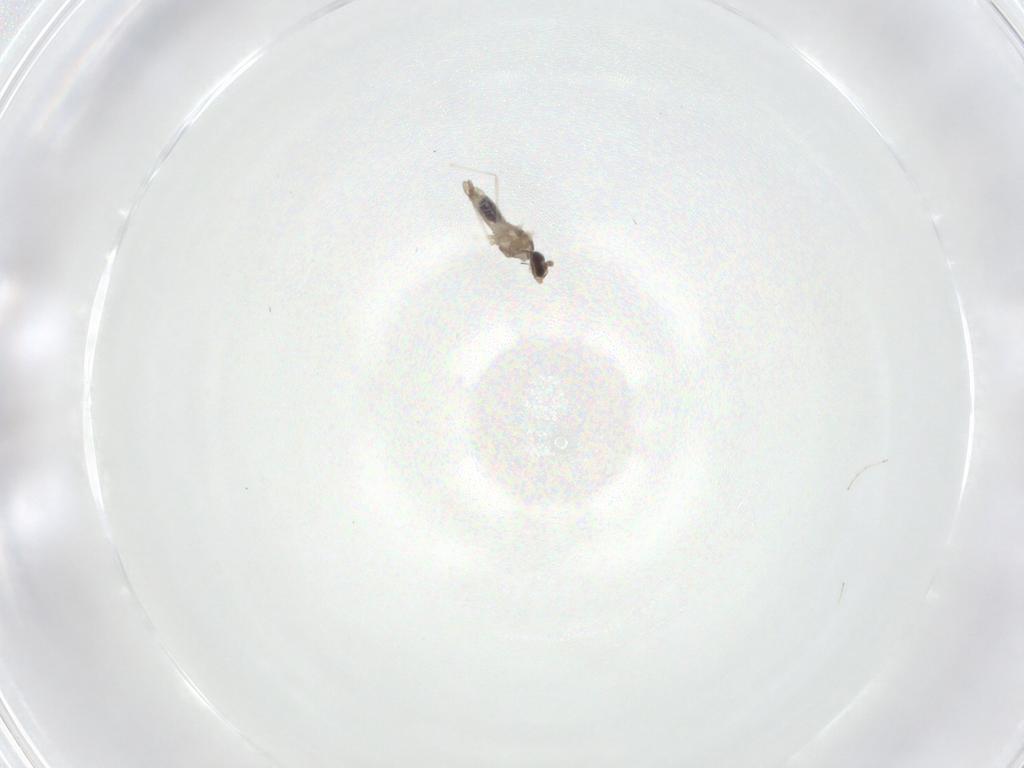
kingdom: Animalia
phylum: Arthropoda
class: Insecta
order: Diptera
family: Cecidomyiidae
